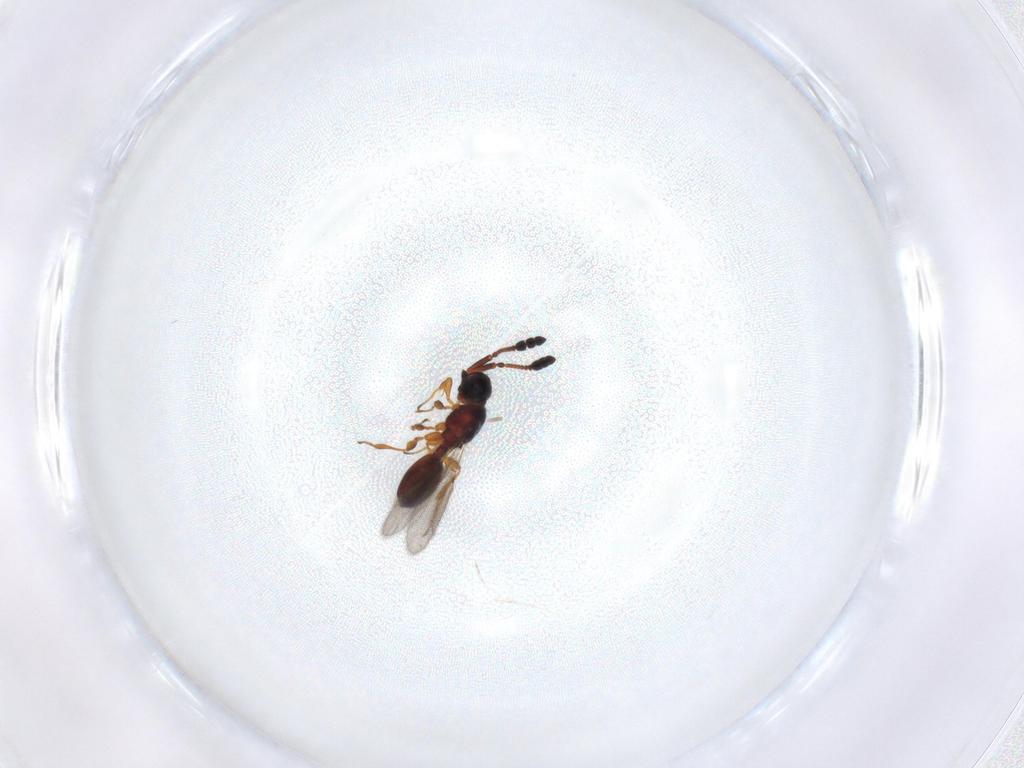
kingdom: Animalia
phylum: Arthropoda
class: Insecta
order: Hymenoptera
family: Diapriidae
